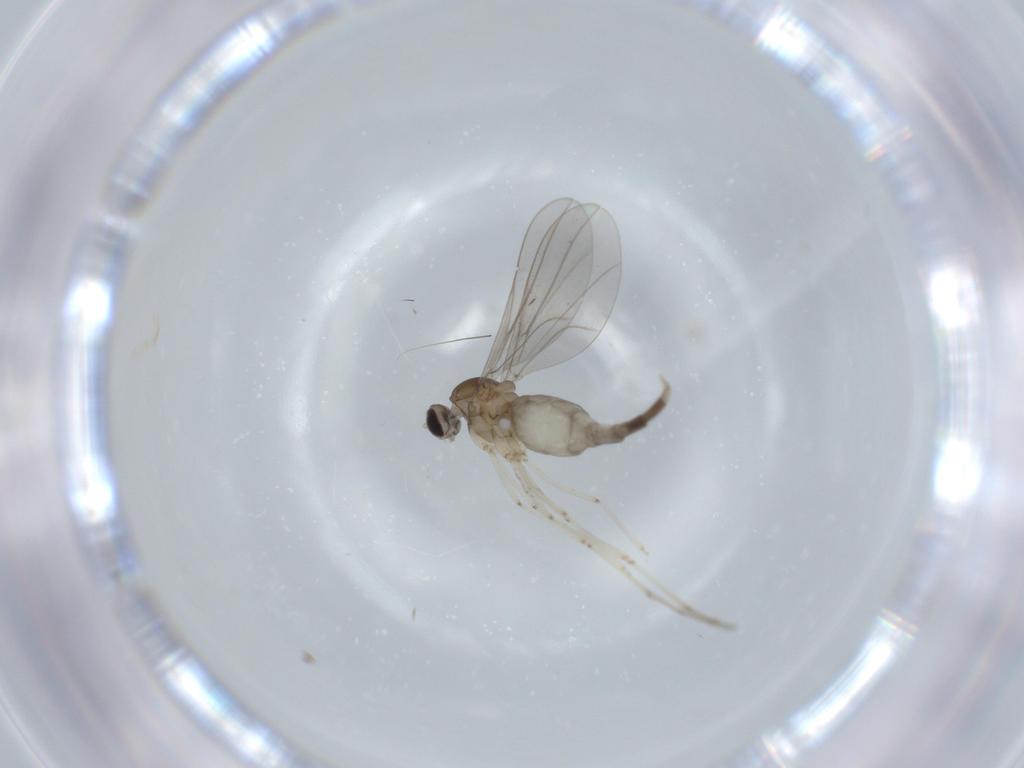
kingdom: Animalia
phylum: Arthropoda
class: Insecta
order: Diptera
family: Cecidomyiidae
